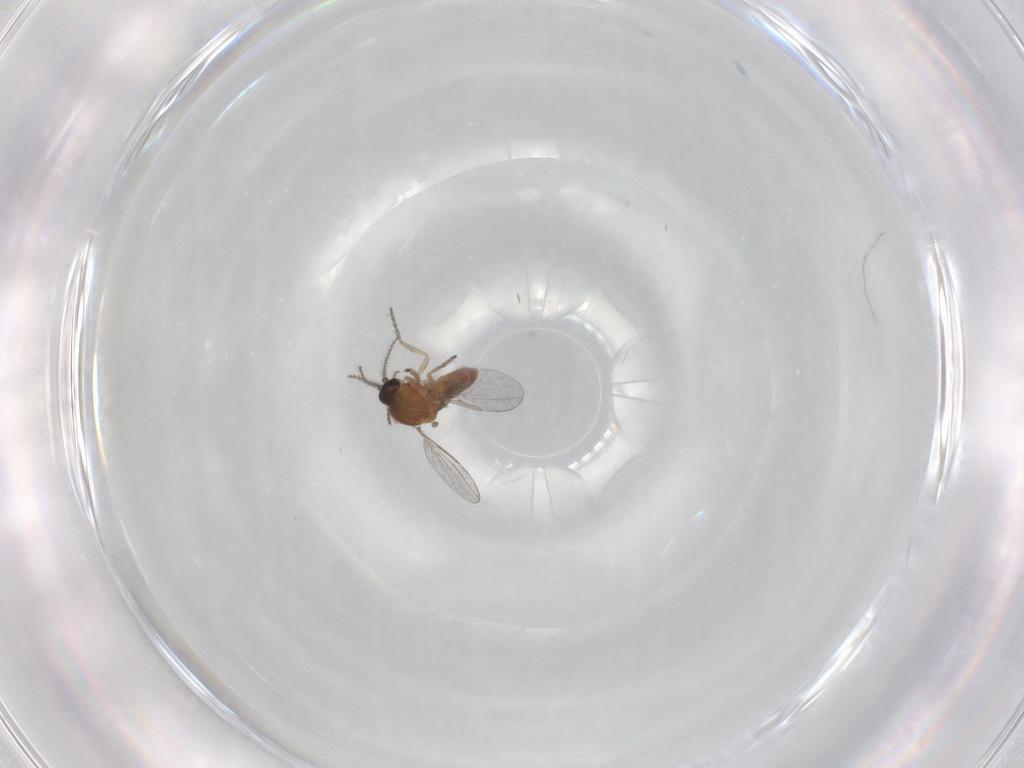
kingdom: Animalia
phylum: Arthropoda
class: Insecta
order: Diptera
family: Ceratopogonidae
